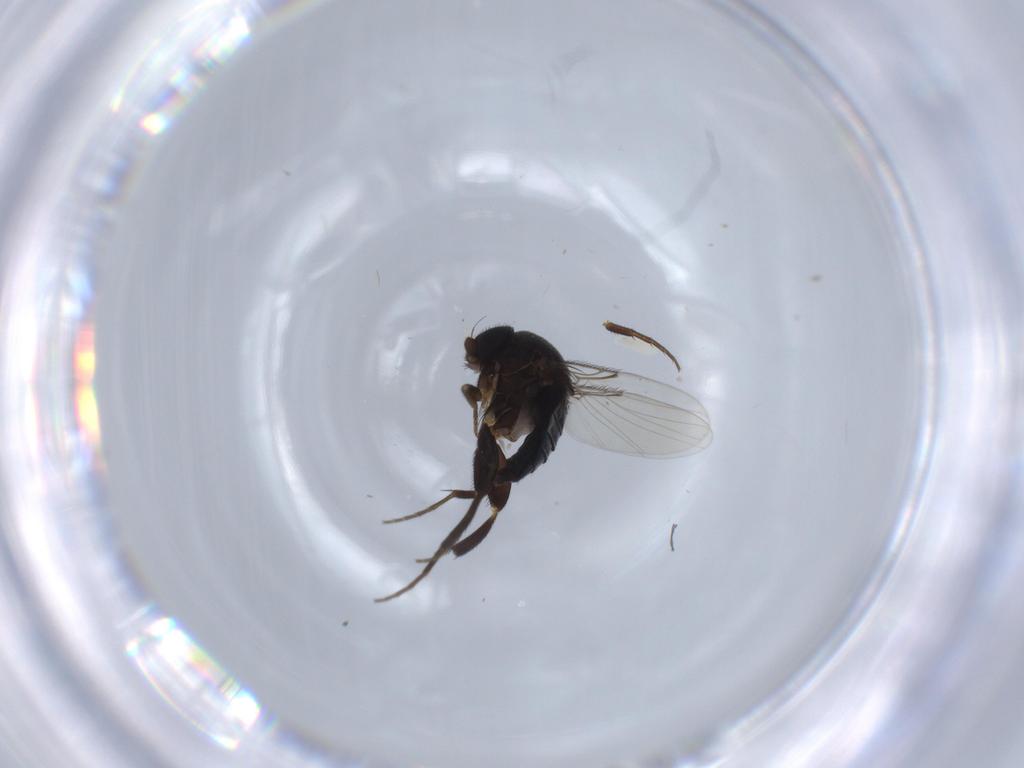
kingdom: Animalia
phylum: Arthropoda
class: Insecta
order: Diptera
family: Phoridae
